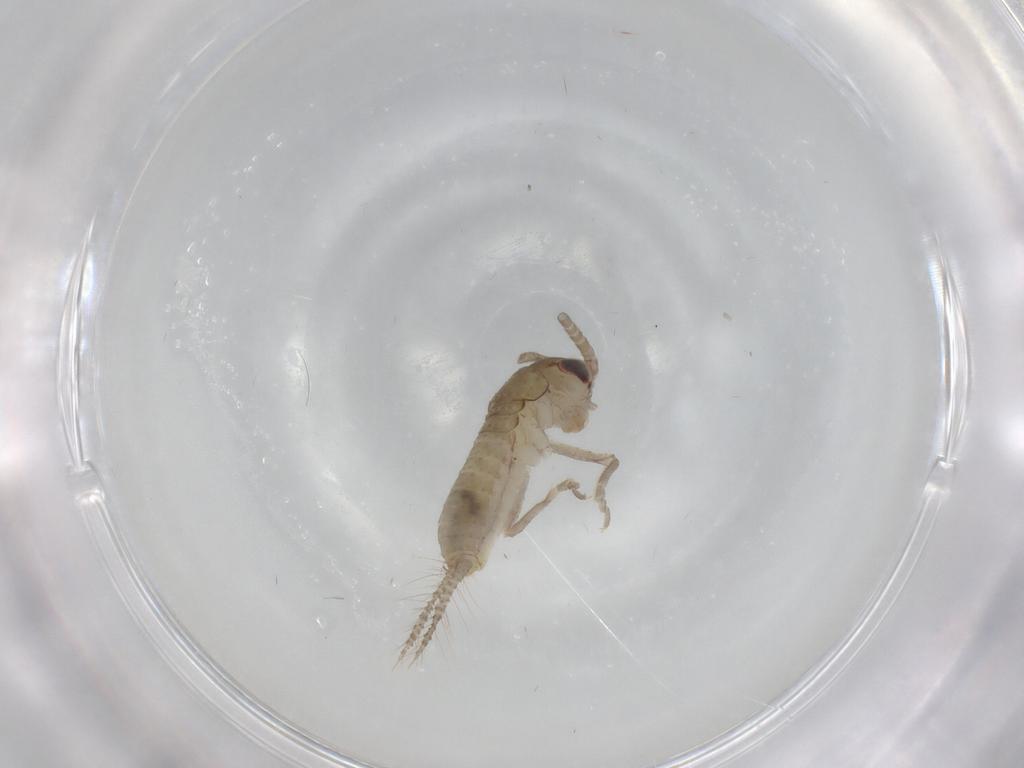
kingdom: Animalia
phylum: Arthropoda
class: Insecta
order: Orthoptera
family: Gryllidae
